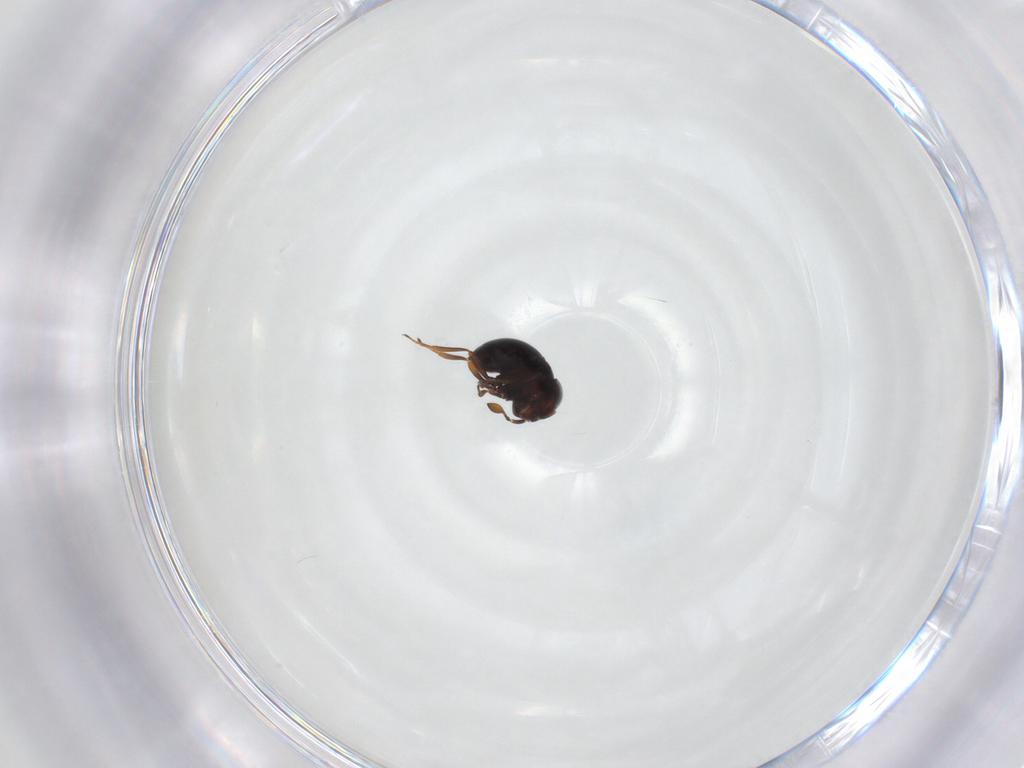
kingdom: Animalia
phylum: Arthropoda
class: Insecta
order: Hymenoptera
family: Scelionidae
